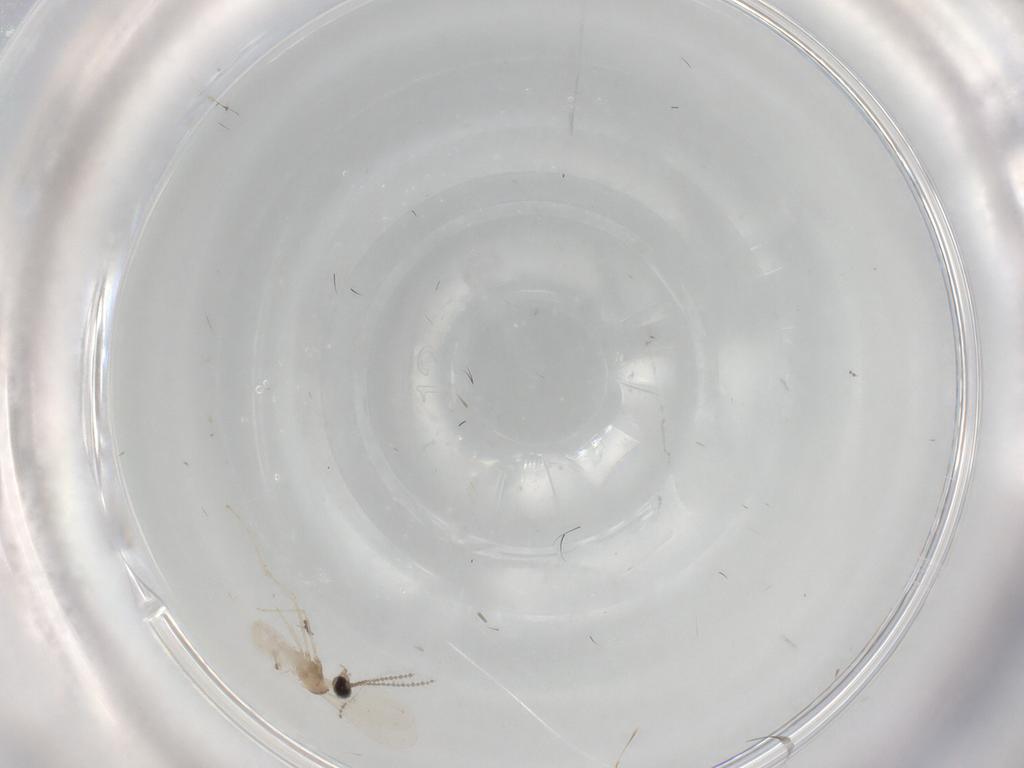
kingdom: Animalia
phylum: Arthropoda
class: Insecta
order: Diptera
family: Cecidomyiidae
